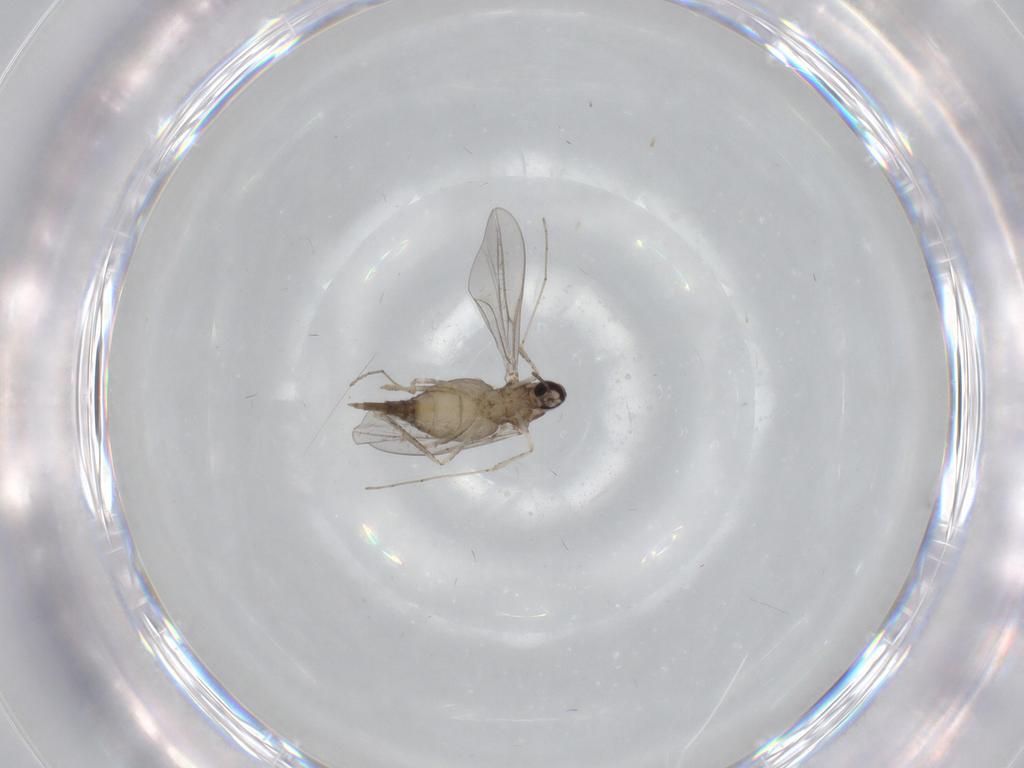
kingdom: Animalia
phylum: Arthropoda
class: Insecta
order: Diptera
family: Cecidomyiidae
